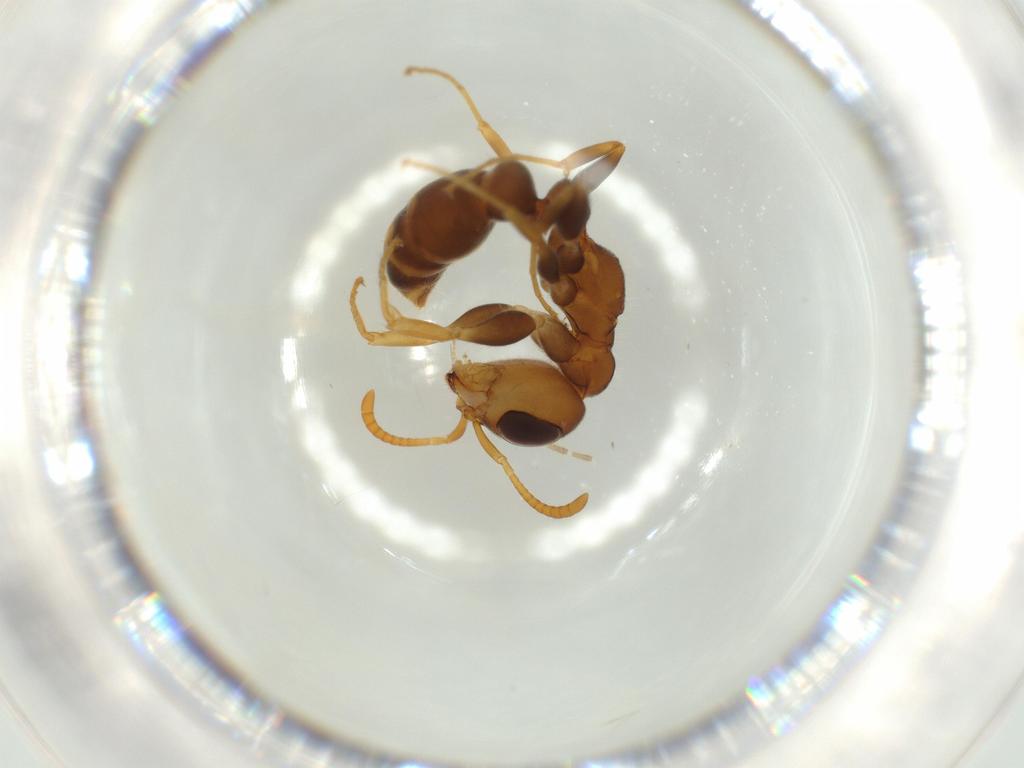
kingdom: Animalia
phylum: Arthropoda
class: Insecta
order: Hymenoptera
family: Formicidae
